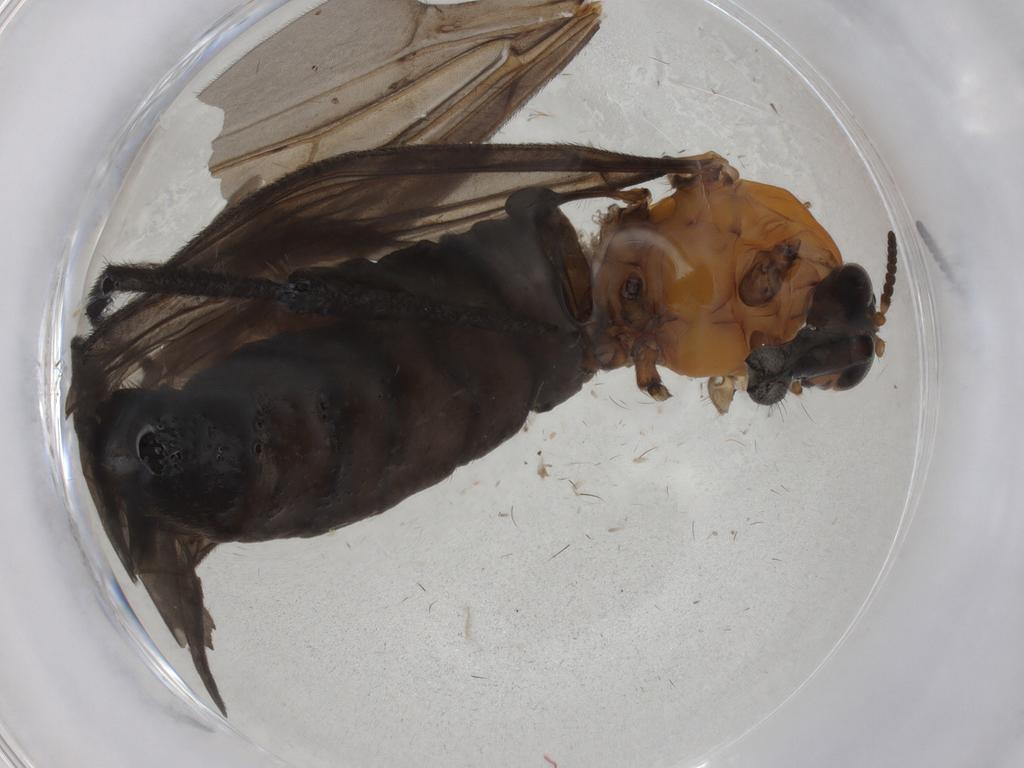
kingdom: Animalia
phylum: Arthropoda
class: Insecta
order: Diptera
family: Bibionidae
